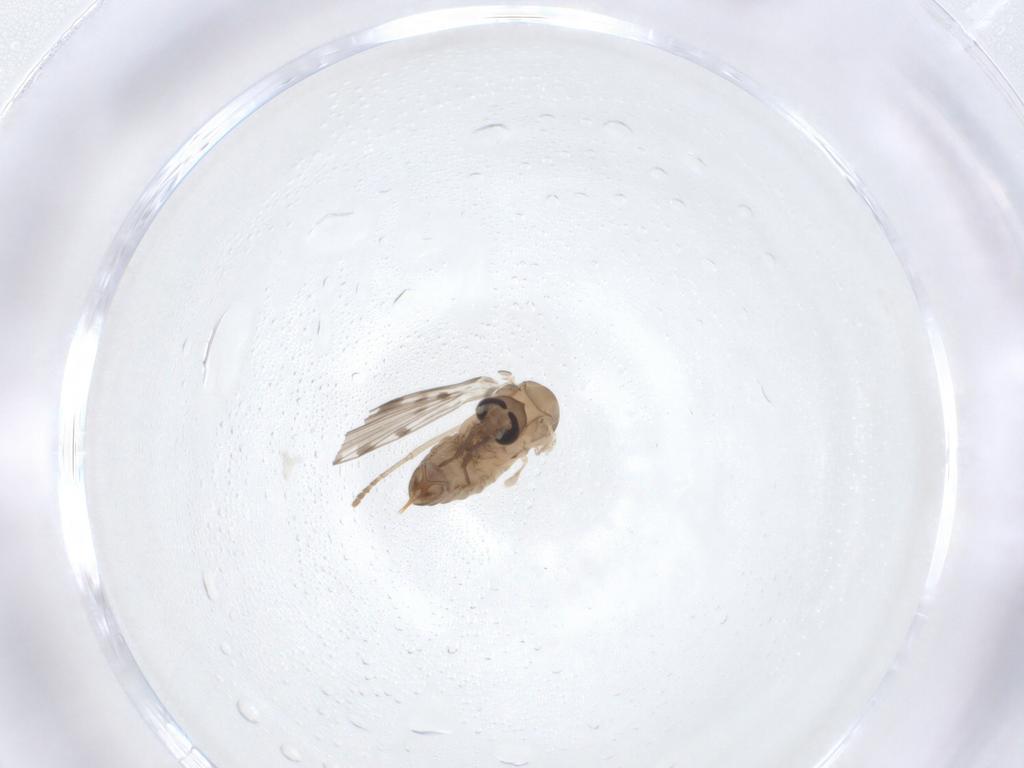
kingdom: Animalia
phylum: Arthropoda
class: Insecta
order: Diptera
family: Psychodidae
